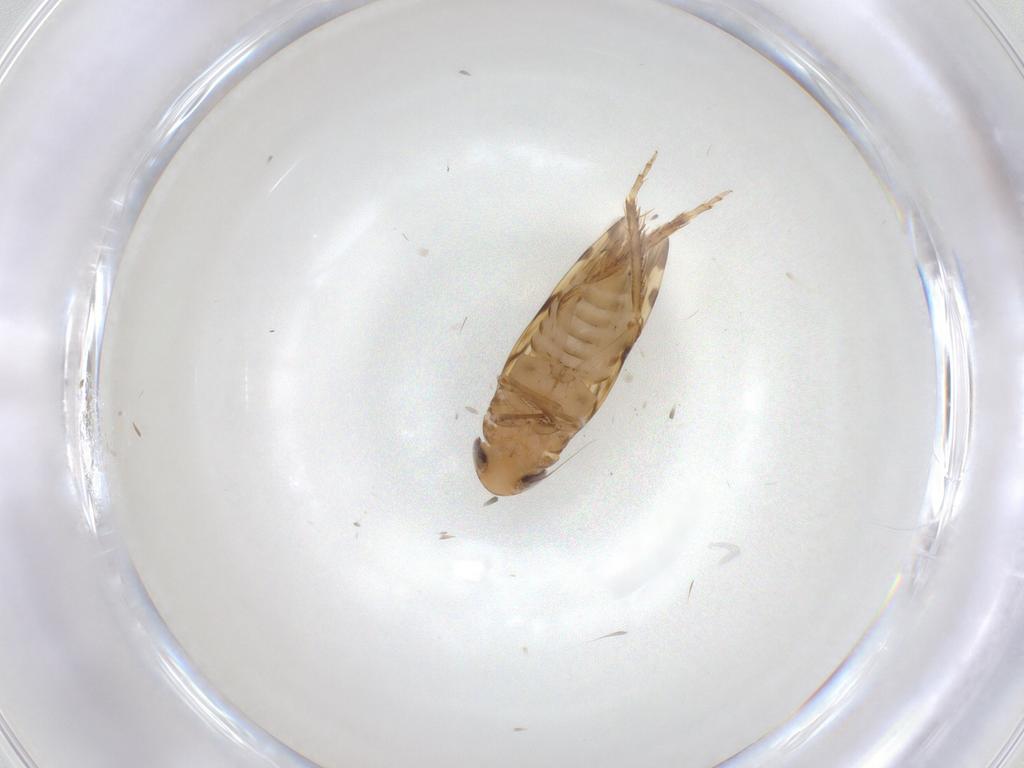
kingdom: Animalia
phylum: Arthropoda
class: Insecta
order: Hemiptera
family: Cicadellidae
